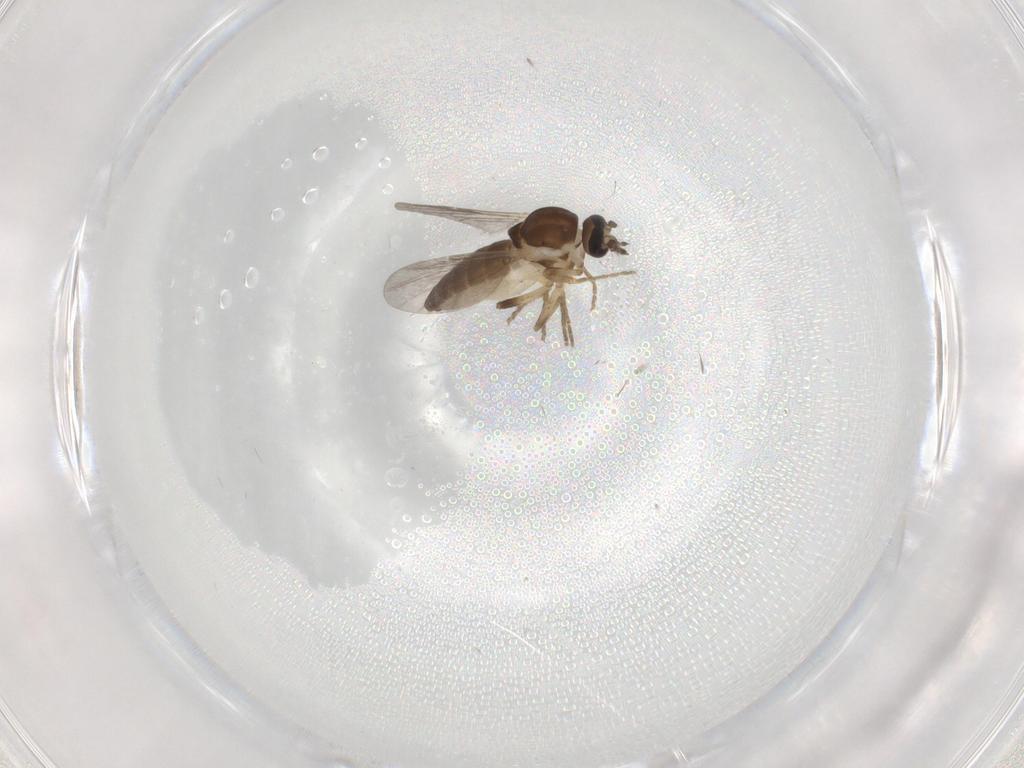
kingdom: Animalia
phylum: Arthropoda
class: Insecta
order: Diptera
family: Ceratopogonidae
